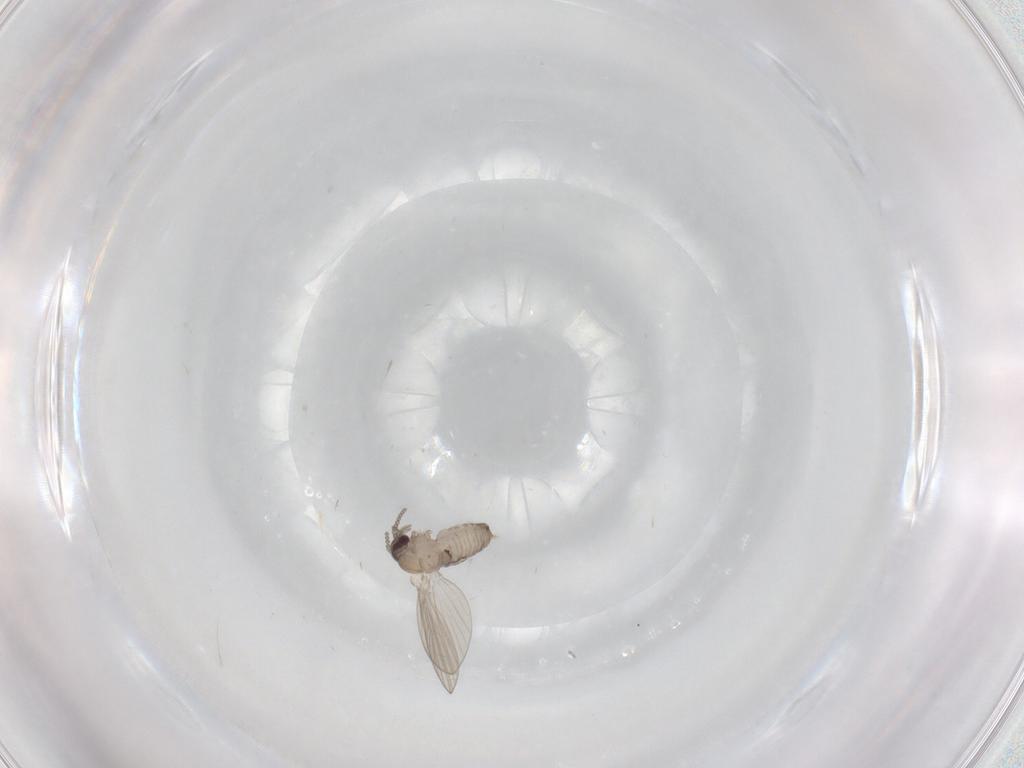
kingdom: Animalia
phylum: Arthropoda
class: Insecta
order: Diptera
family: Psychodidae
